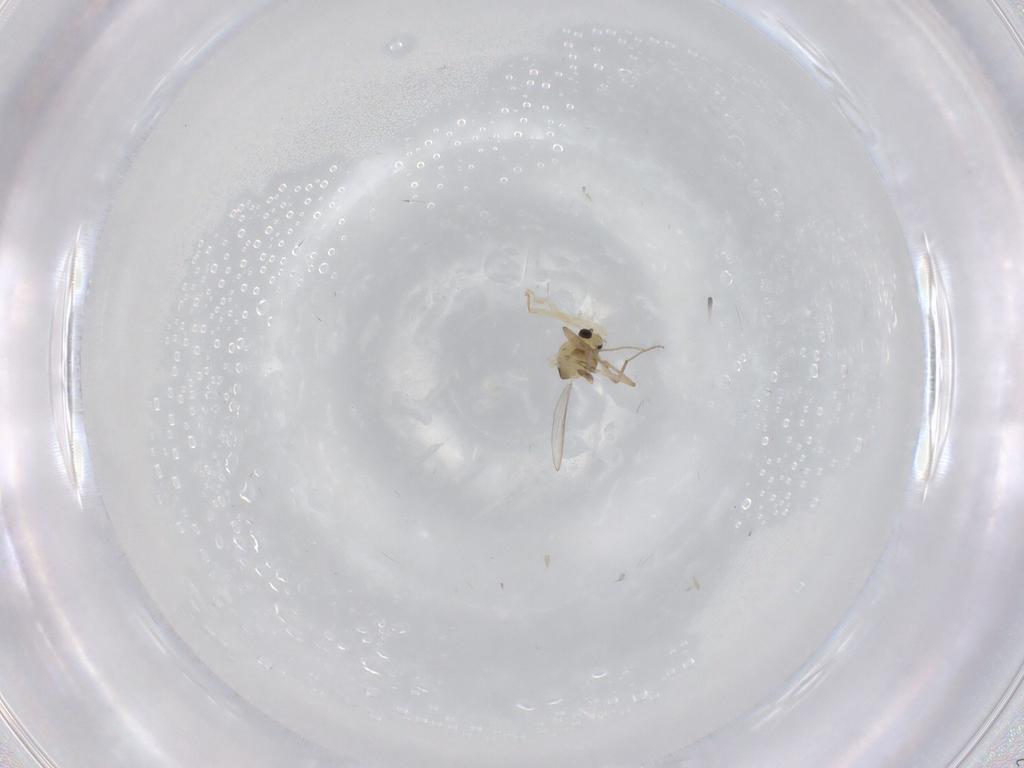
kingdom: Animalia
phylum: Arthropoda
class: Insecta
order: Diptera
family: Chironomidae
